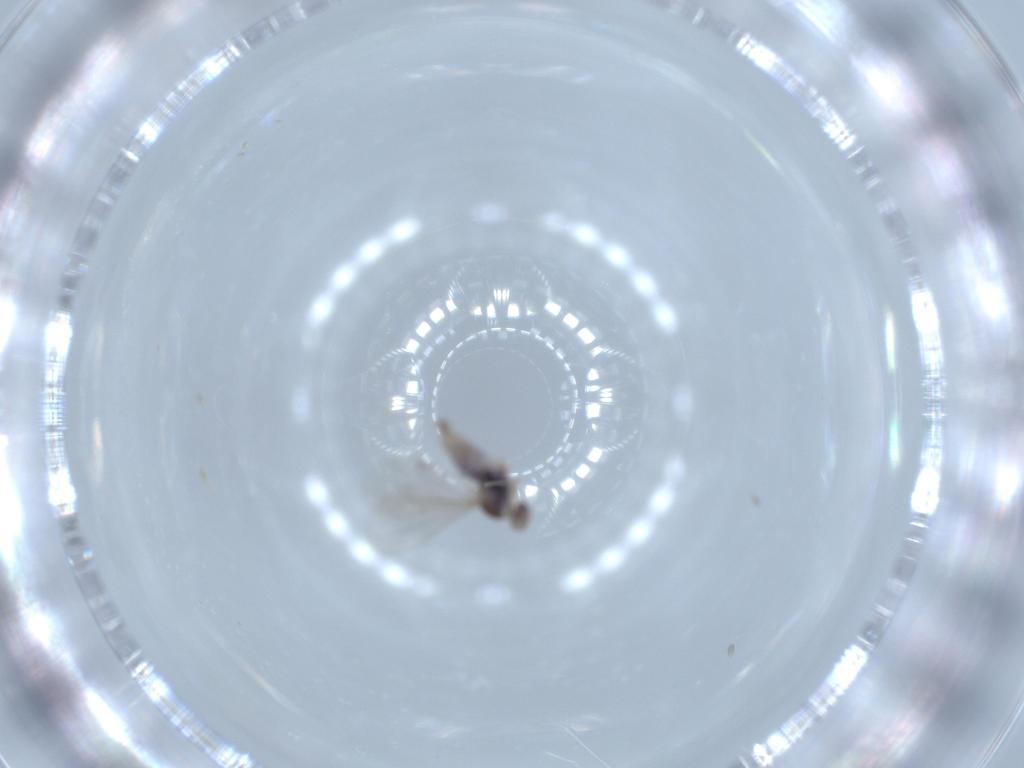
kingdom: Animalia
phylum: Arthropoda
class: Insecta
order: Diptera
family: Cecidomyiidae
